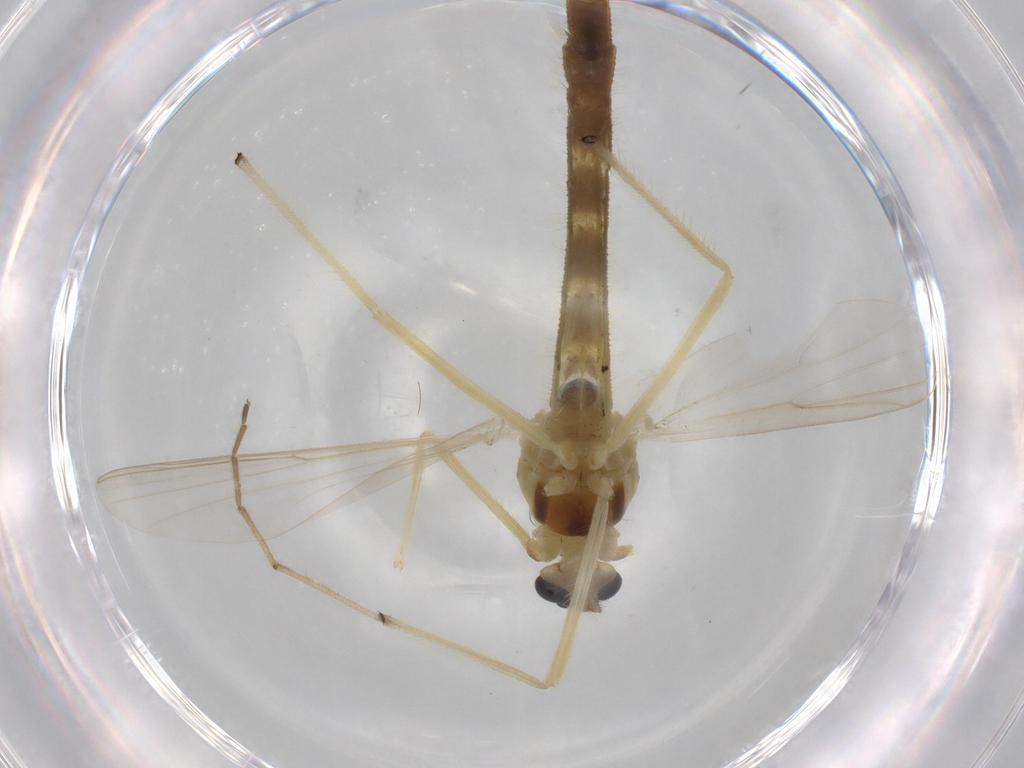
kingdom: Animalia
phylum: Arthropoda
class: Insecta
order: Diptera
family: Chironomidae
